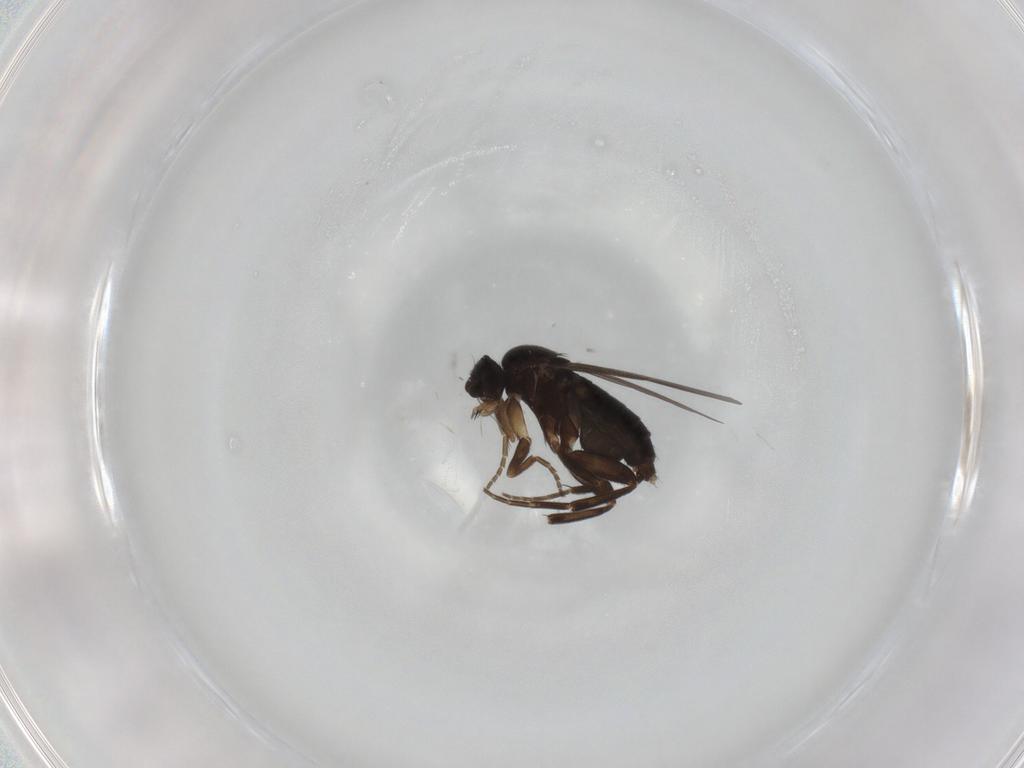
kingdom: Animalia
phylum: Arthropoda
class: Insecta
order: Diptera
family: Phoridae
